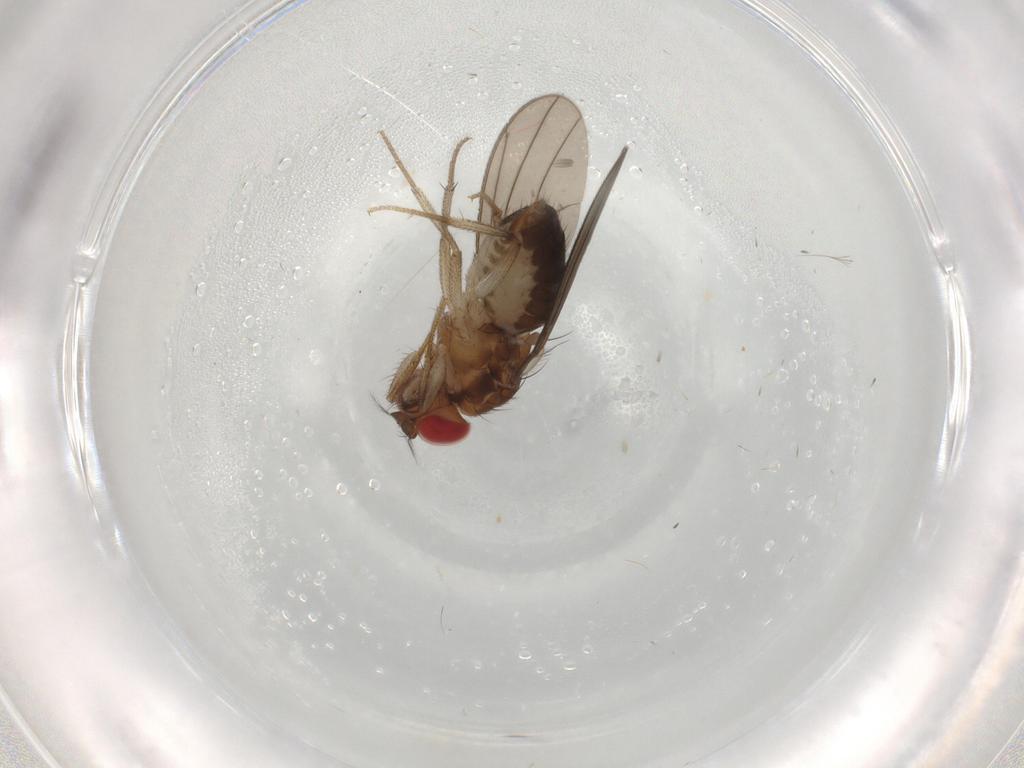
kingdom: Animalia
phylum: Arthropoda
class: Insecta
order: Diptera
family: Drosophilidae
